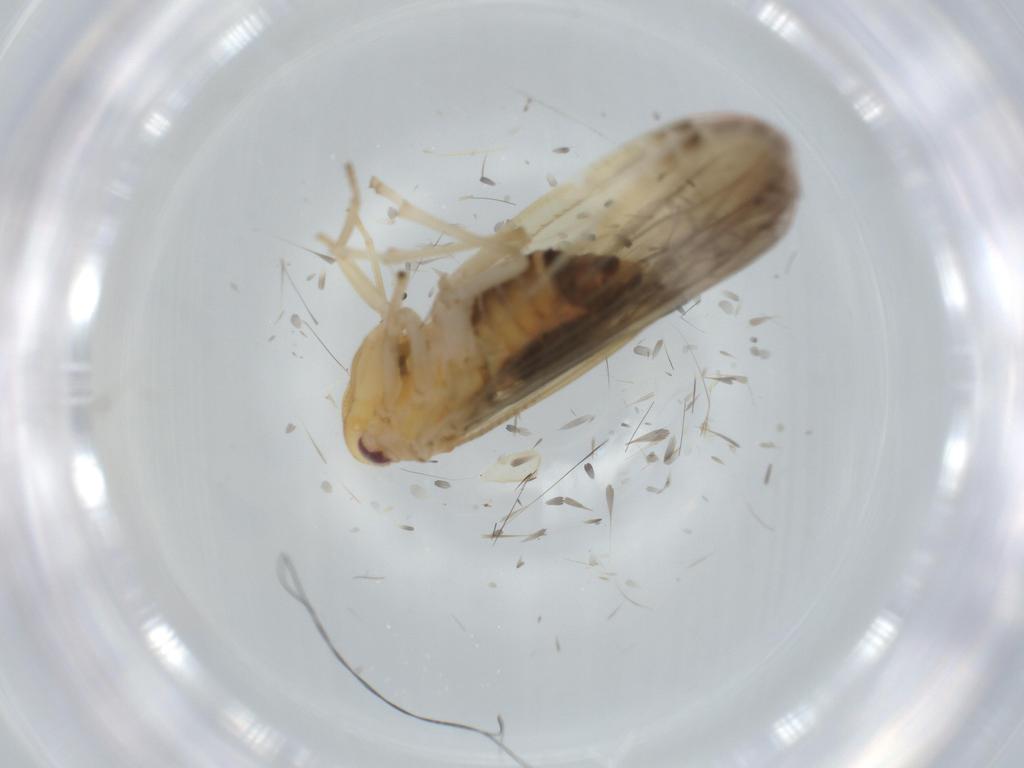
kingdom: Animalia
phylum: Arthropoda
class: Insecta
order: Hemiptera
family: Derbidae
